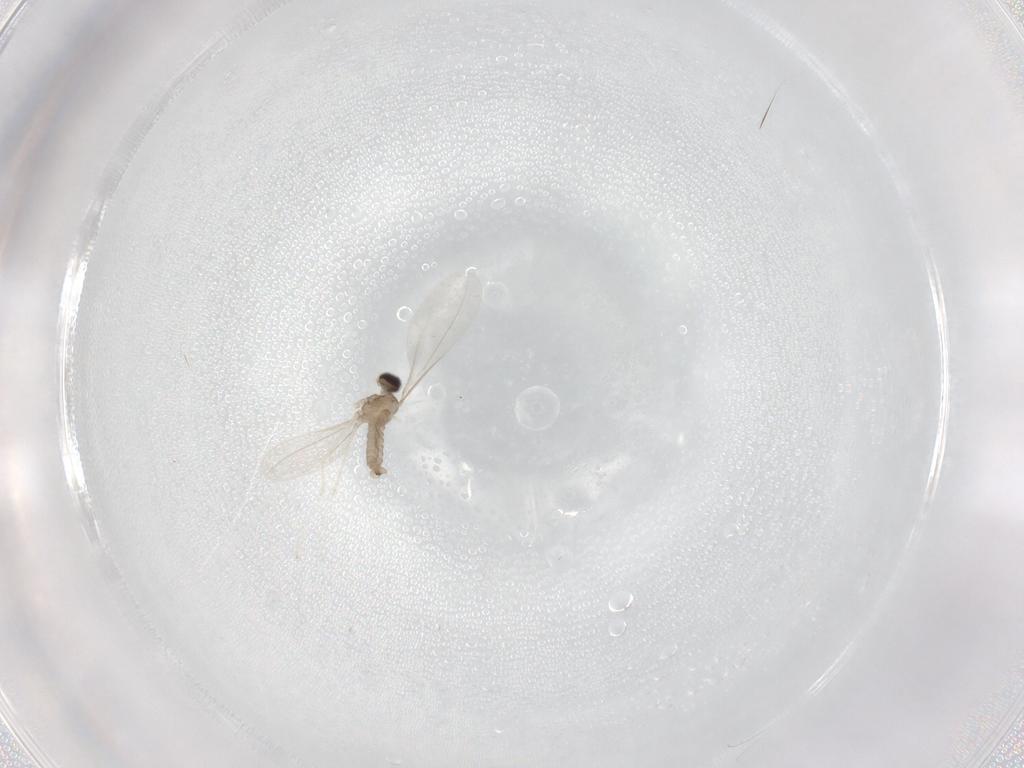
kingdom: Animalia
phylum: Arthropoda
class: Insecta
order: Diptera
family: Cecidomyiidae
